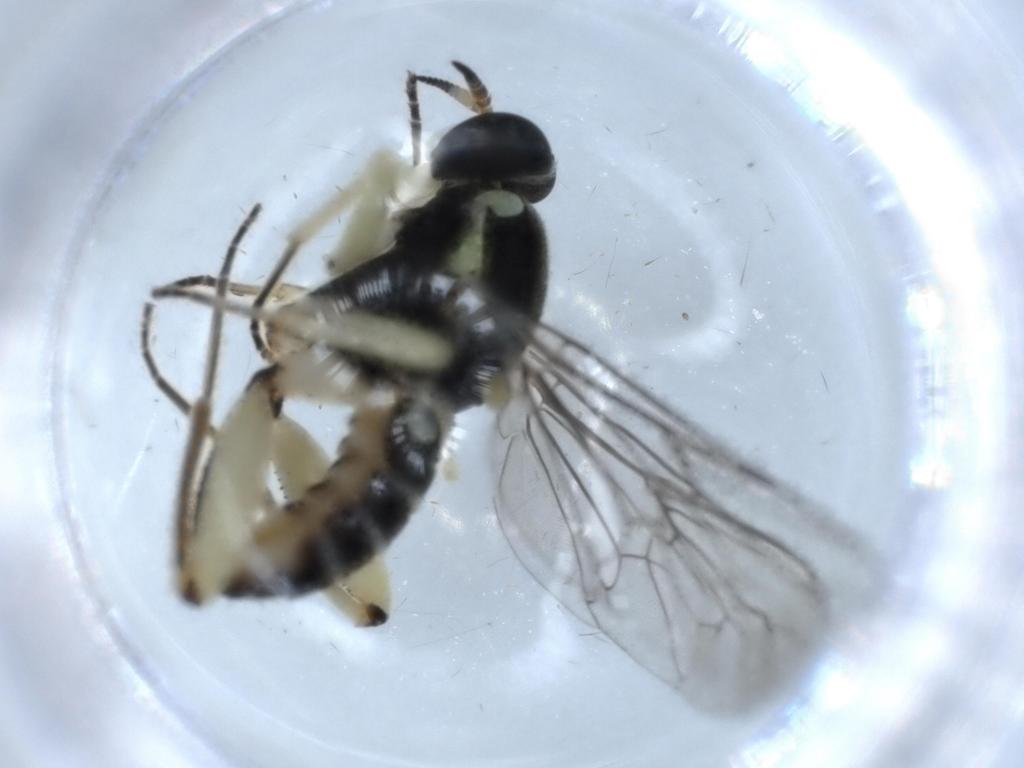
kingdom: Animalia
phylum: Arthropoda
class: Insecta
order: Diptera
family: Sciaridae
